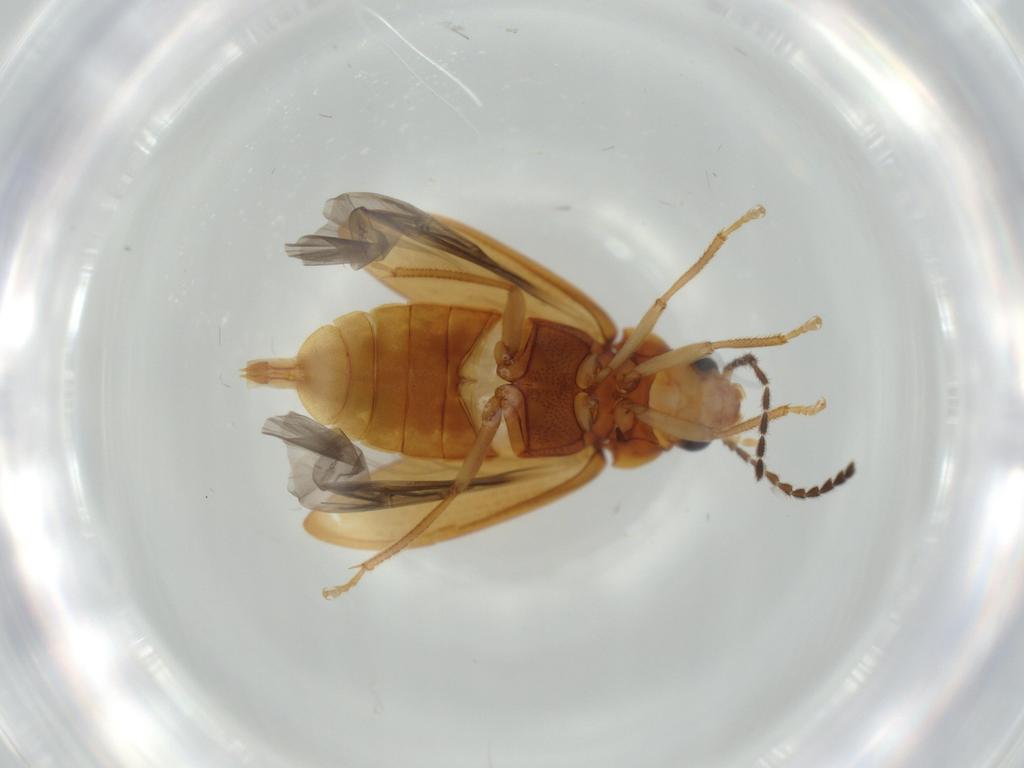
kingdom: Animalia
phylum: Arthropoda
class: Insecta
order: Coleoptera
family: Ptilodactylidae
